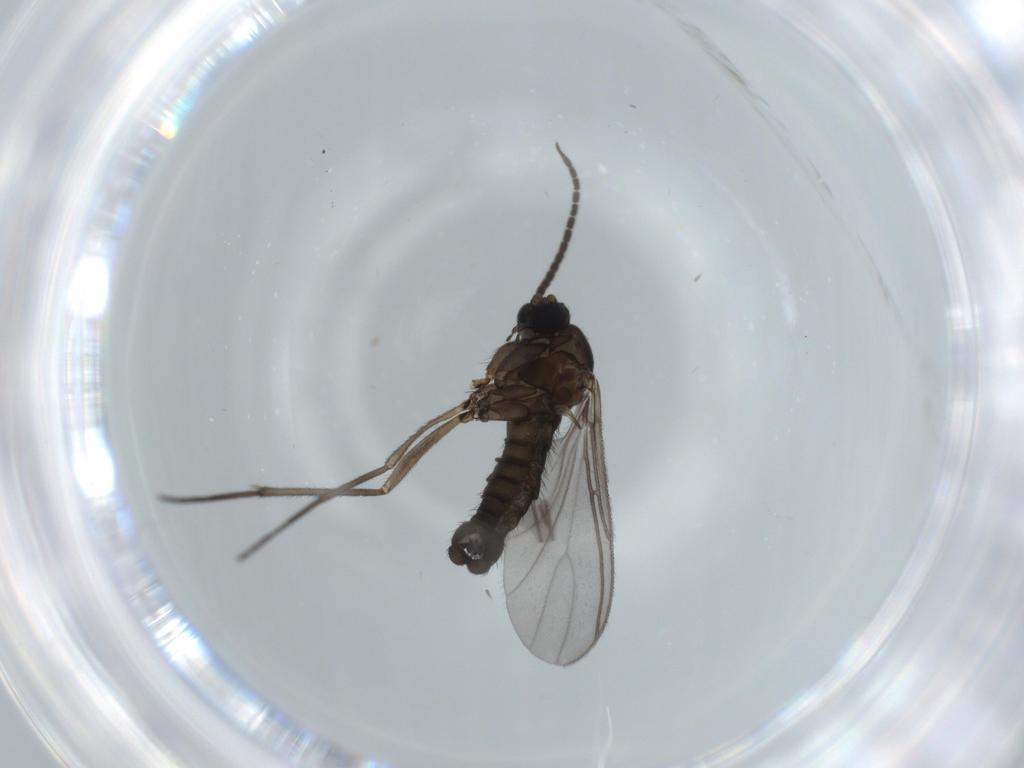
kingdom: Animalia
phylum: Arthropoda
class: Insecta
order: Diptera
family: Sciaridae
